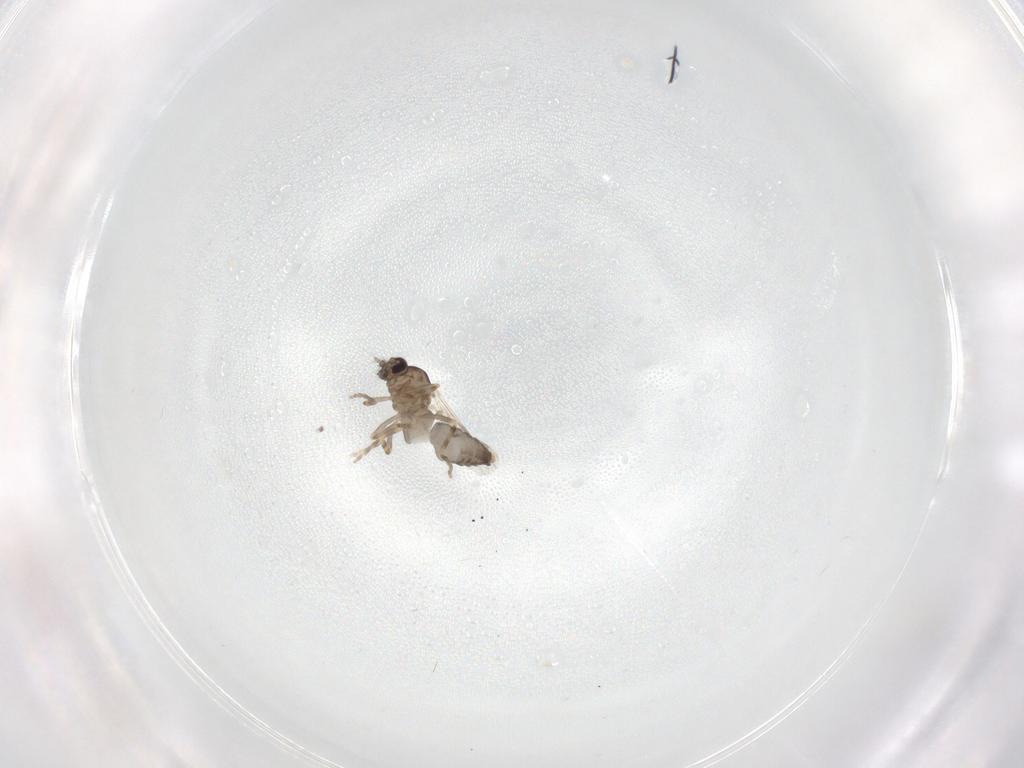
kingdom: Animalia
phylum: Arthropoda
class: Insecta
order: Diptera
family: Ceratopogonidae
